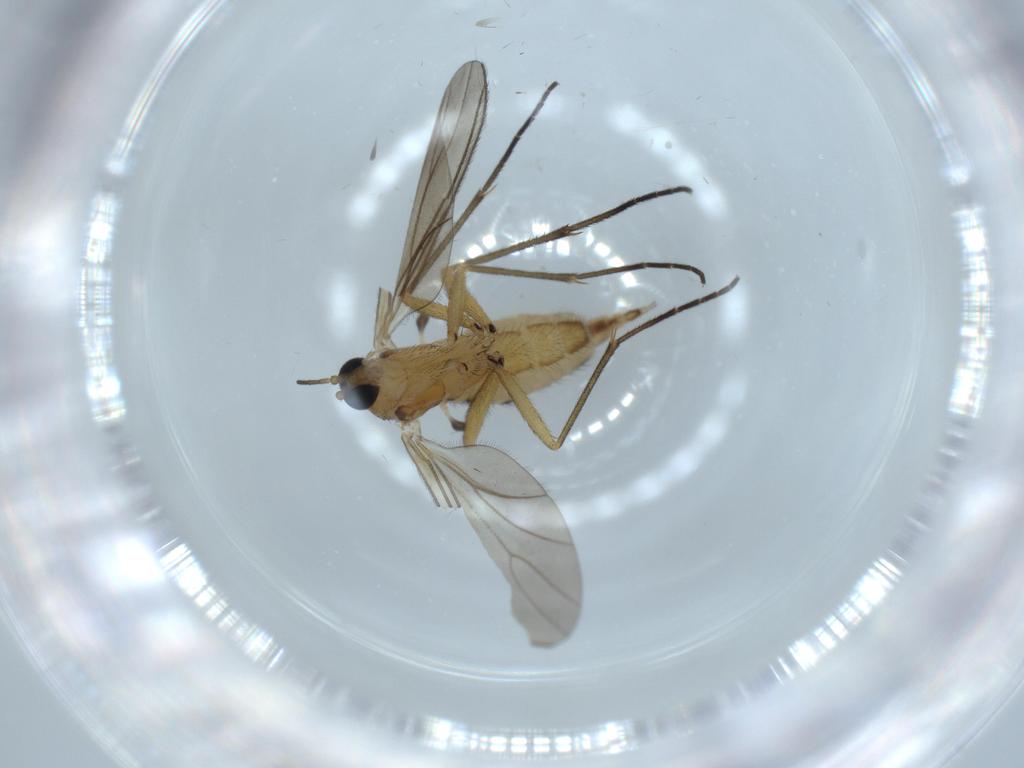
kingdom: Animalia
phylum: Arthropoda
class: Insecta
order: Diptera
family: Sciaridae
